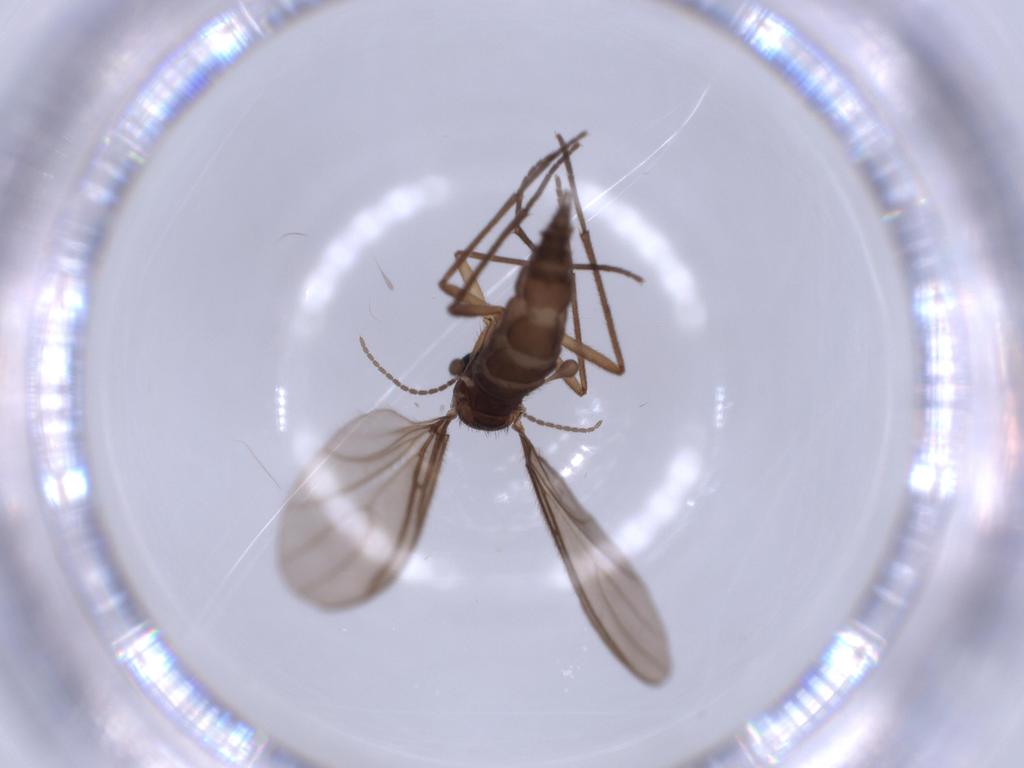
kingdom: Animalia
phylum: Arthropoda
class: Insecta
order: Diptera
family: Sciaridae
